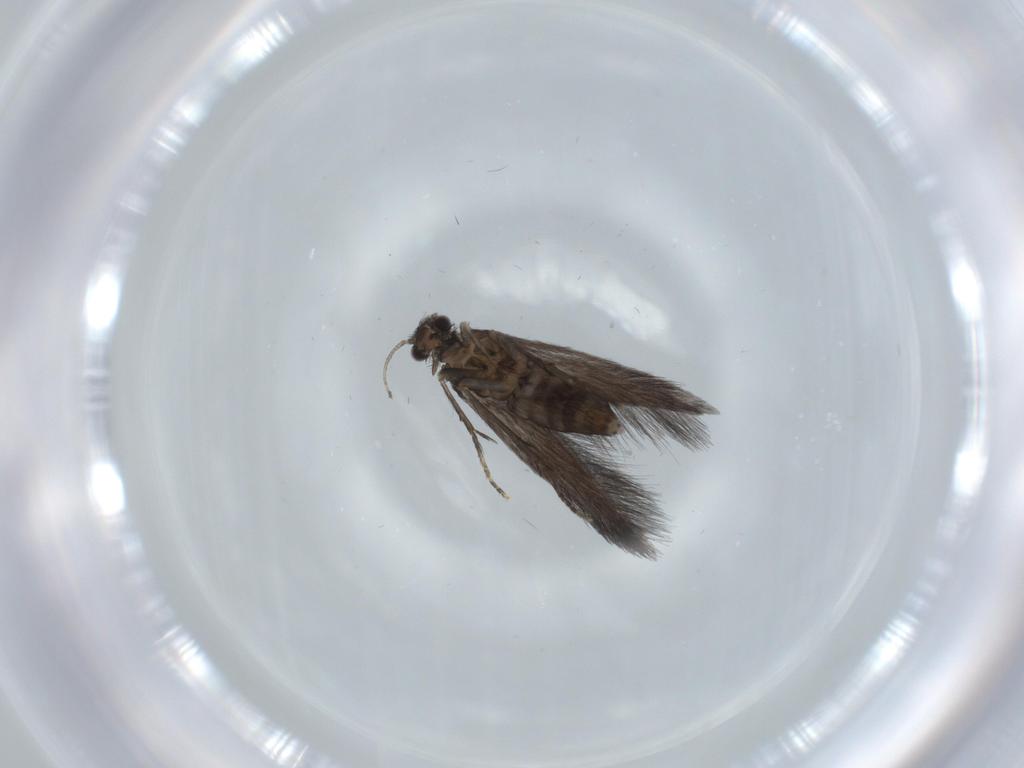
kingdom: Animalia
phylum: Arthropoda
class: Insecta
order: Trichoptera
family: Hydroptilidae
